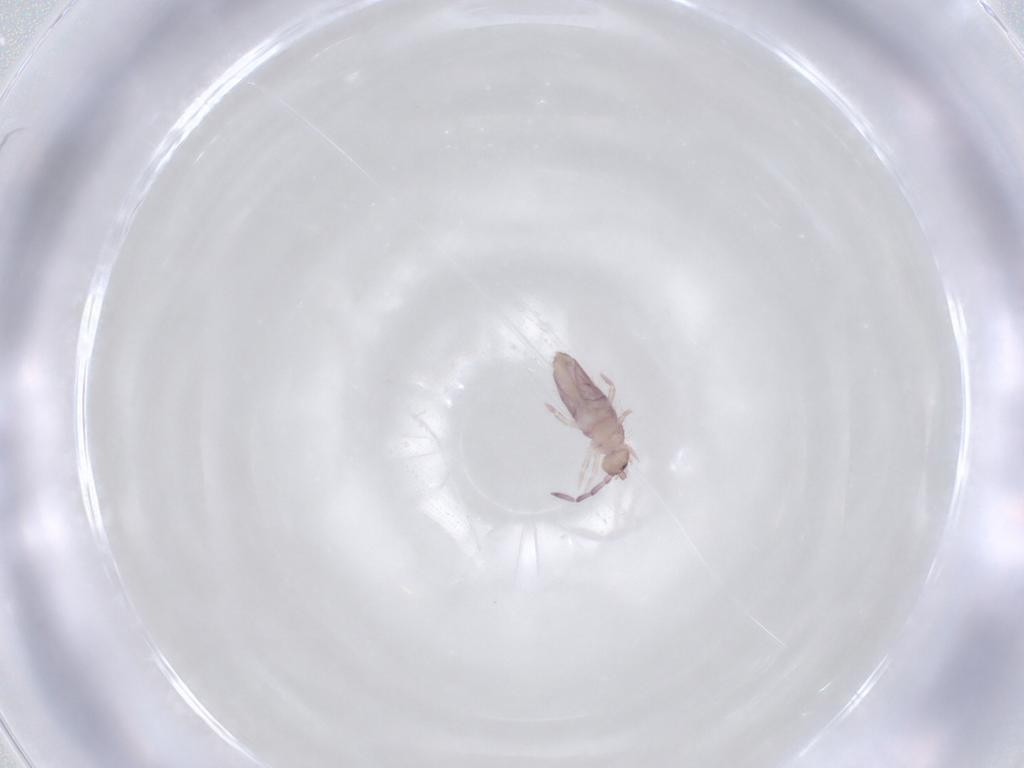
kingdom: Animalia
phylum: Arthropoda
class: Collembola
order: Entomobryomorpha
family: Entomobryidae
